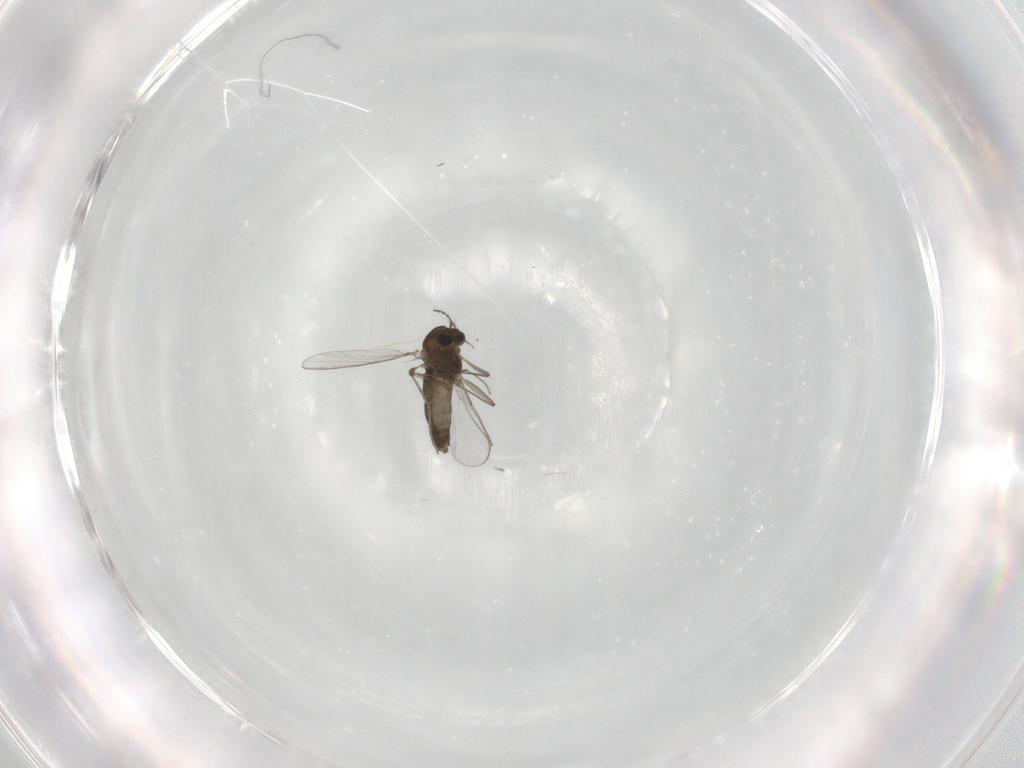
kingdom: Animalia
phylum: Arthropoda
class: Insecta
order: Diptera
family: Chironomidae
